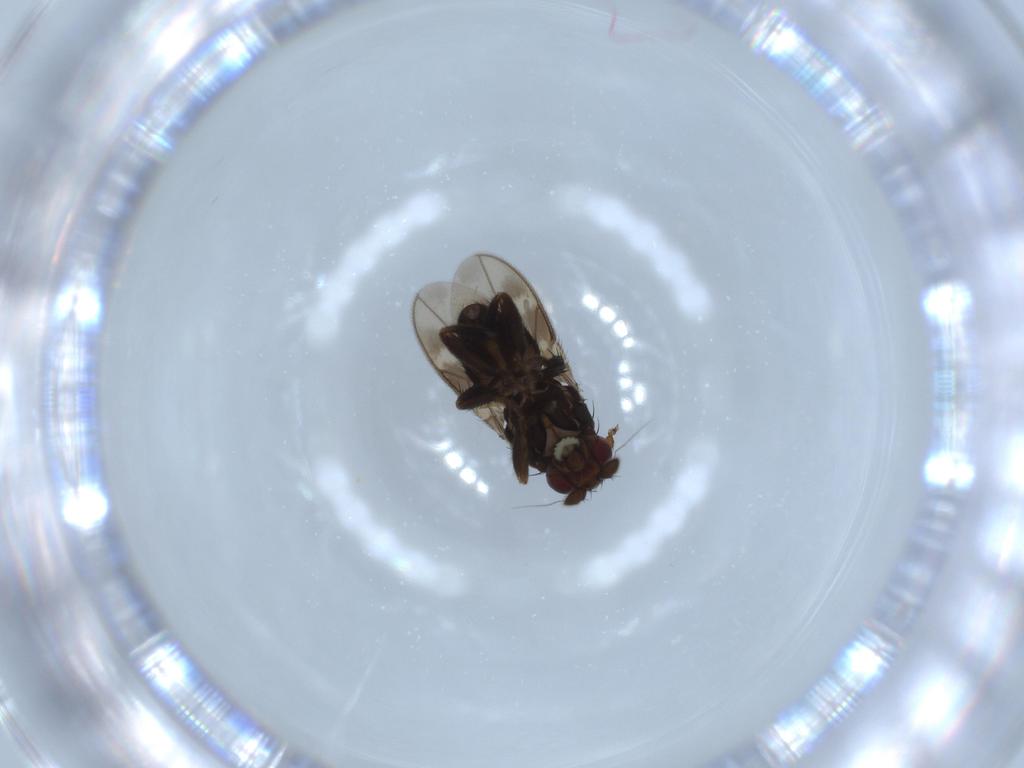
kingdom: Animalia
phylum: Arthropoda
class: Insecta
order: Diptera
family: Sphaeroceridae
